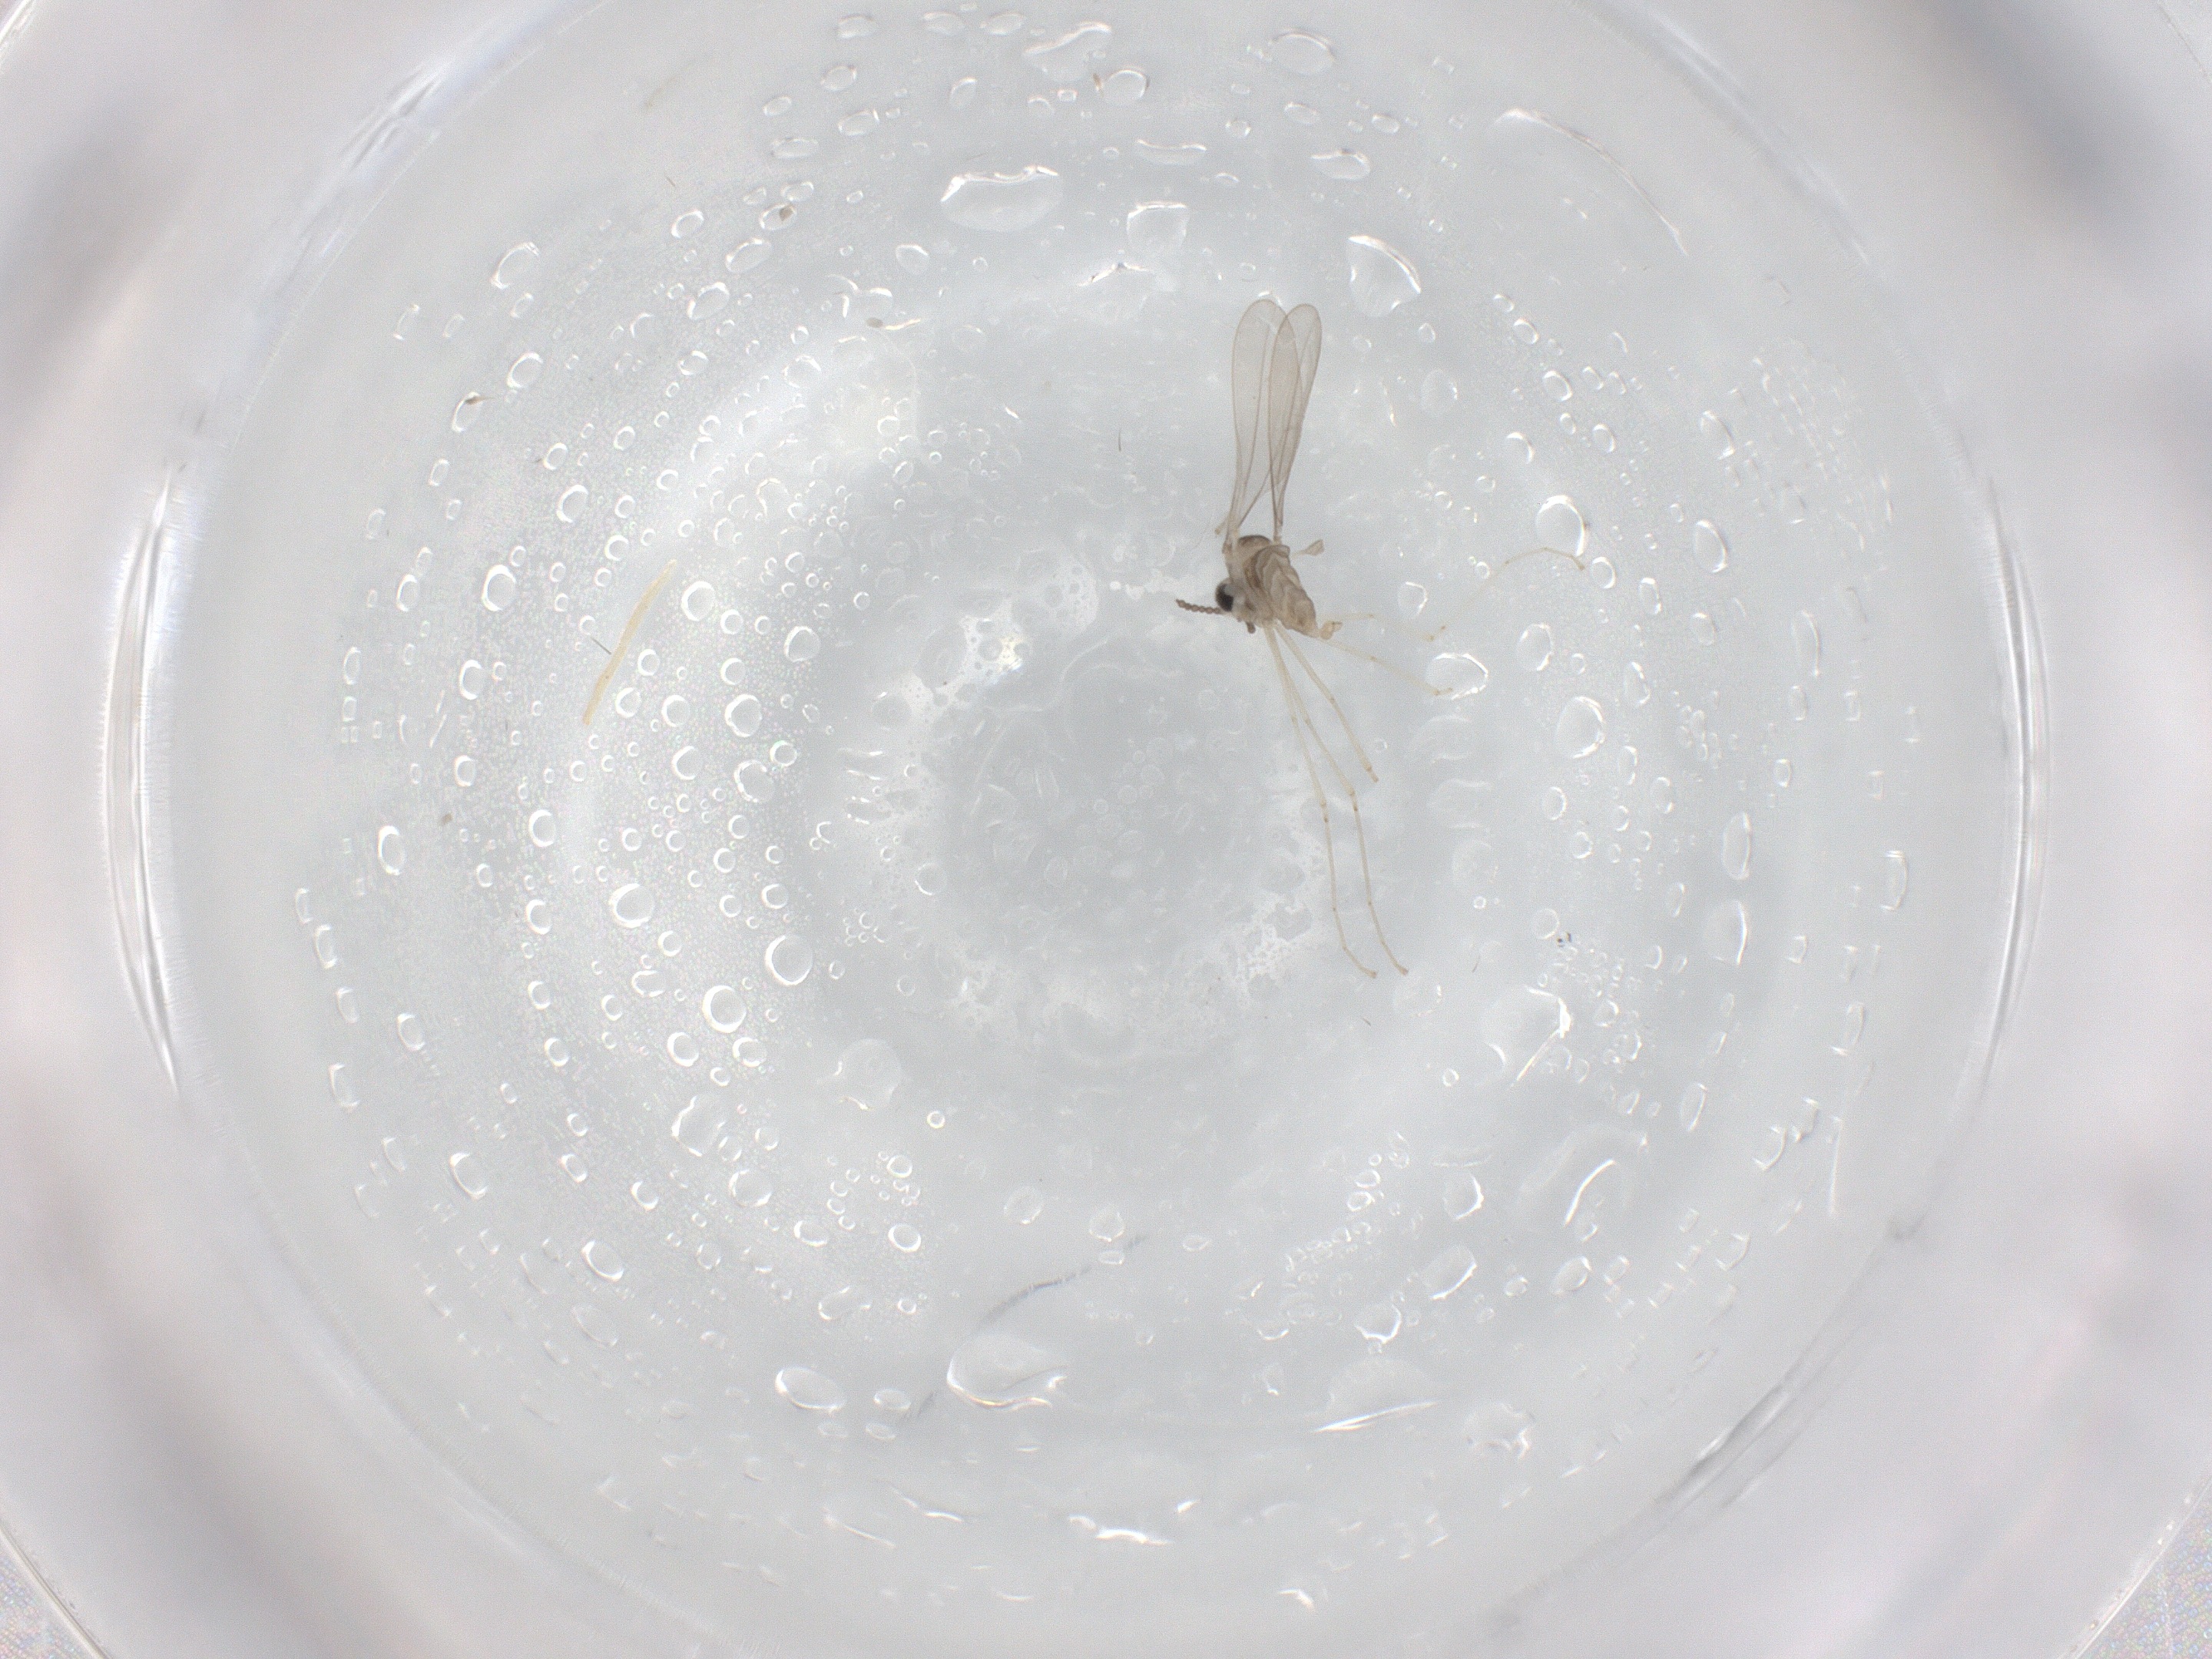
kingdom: Animalia
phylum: Arthropoda
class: Insecta
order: Diptera
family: Cecidomyiidae
